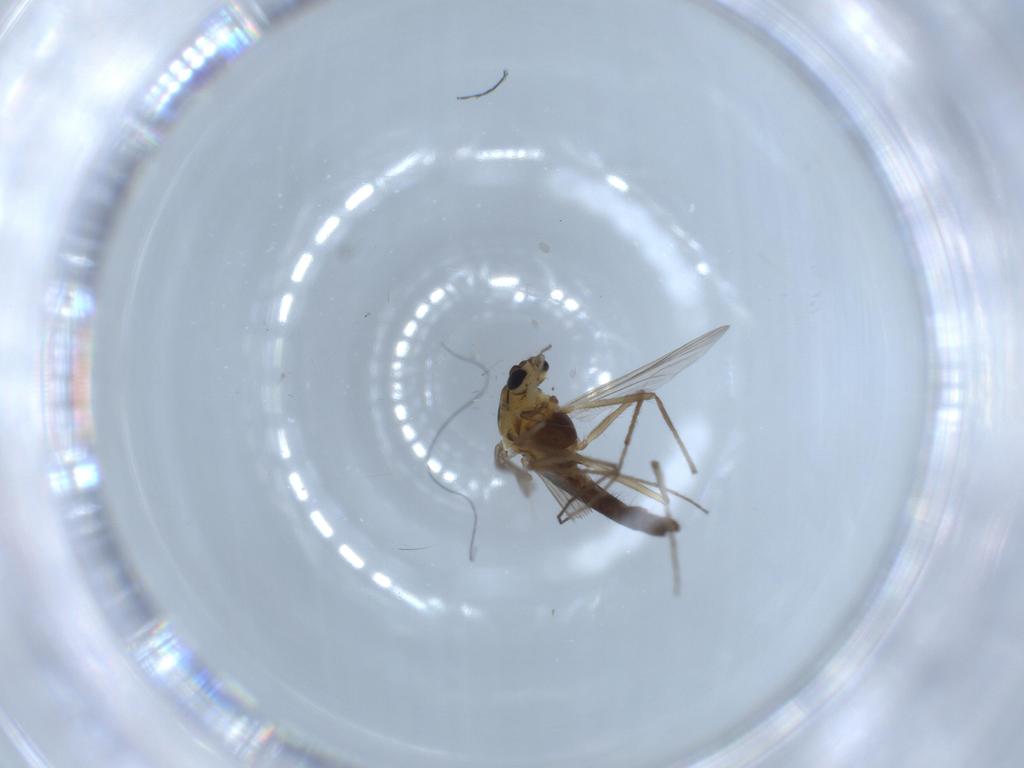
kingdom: Animalia
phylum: Arthropoda
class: Insecta
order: Diptera
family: Chironomidae
